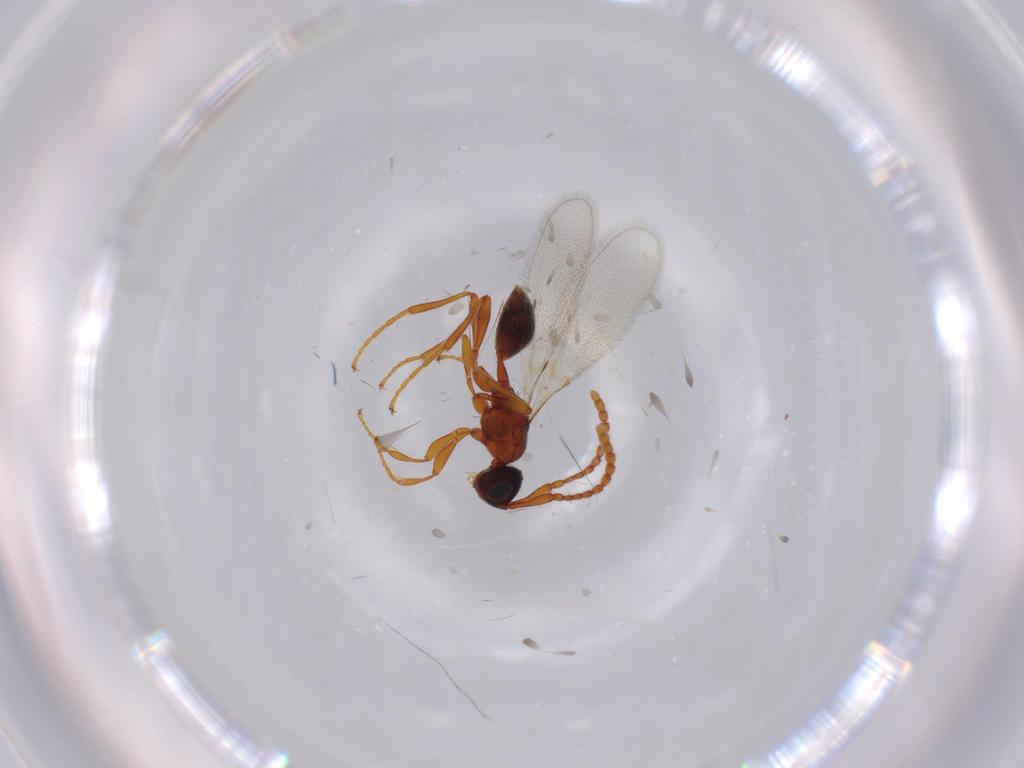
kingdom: Animalia
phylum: Arthropoda
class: Insecta
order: Hymenoptera
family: Diapriidae
